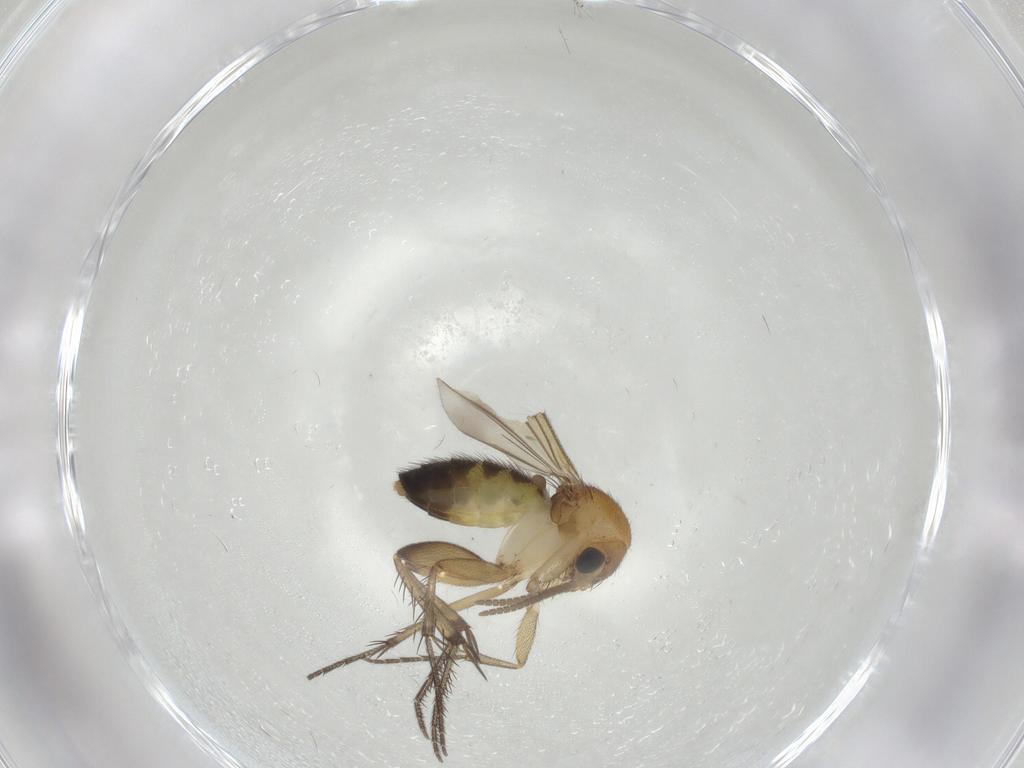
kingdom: Animalia
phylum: Arthropoda
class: Insecta
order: Diptera
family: Mycetophilidae
